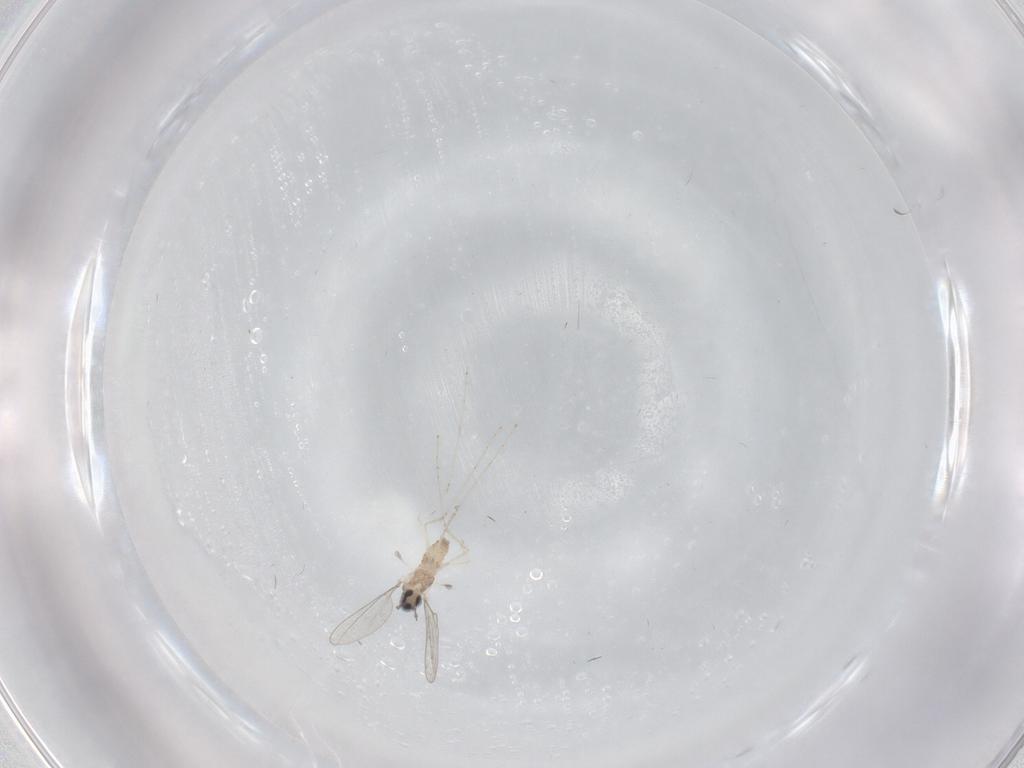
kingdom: Animalia
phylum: Arthropoda
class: Insecta
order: Diptera
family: Cecidomyiidae
